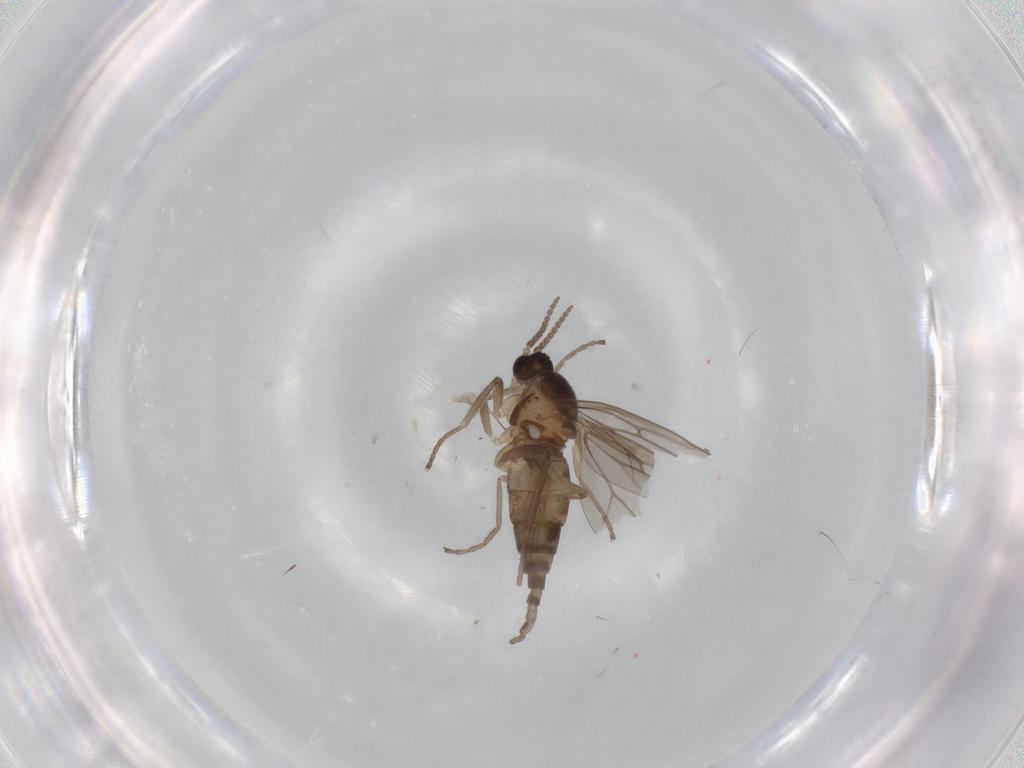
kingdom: Animalia
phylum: Arthropoda
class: Insecta
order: Diptera
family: Cecidomyiidae
